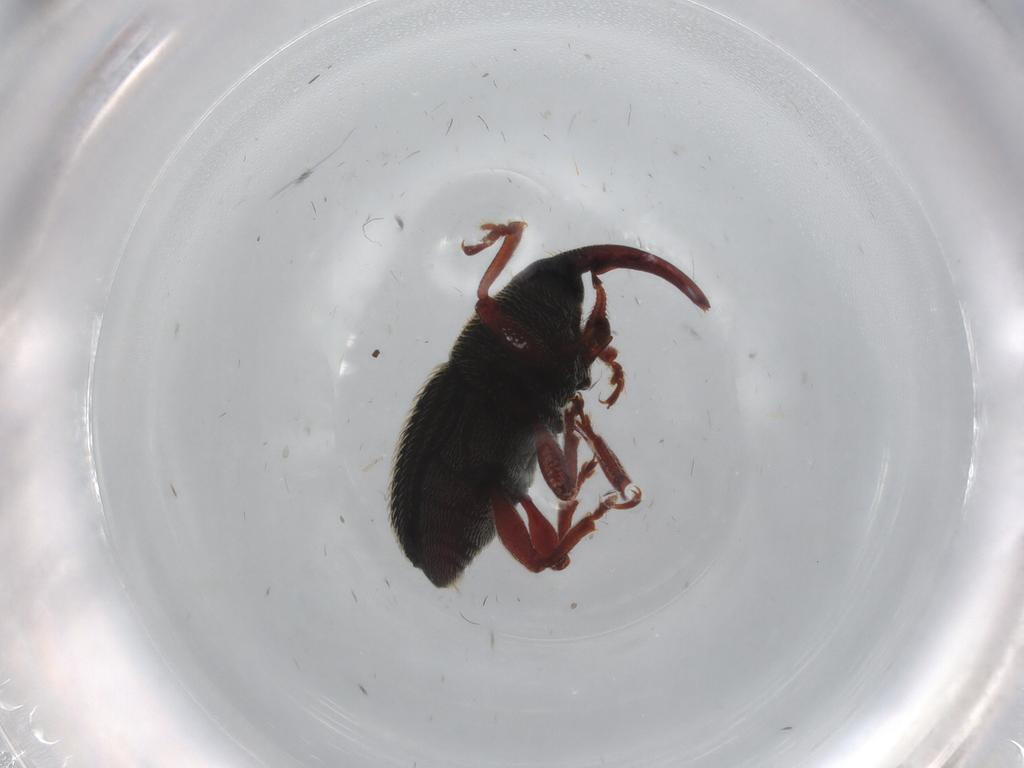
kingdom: Animalia
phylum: Arthropoda
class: Insecta
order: Coleoptera
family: Curculionidae
